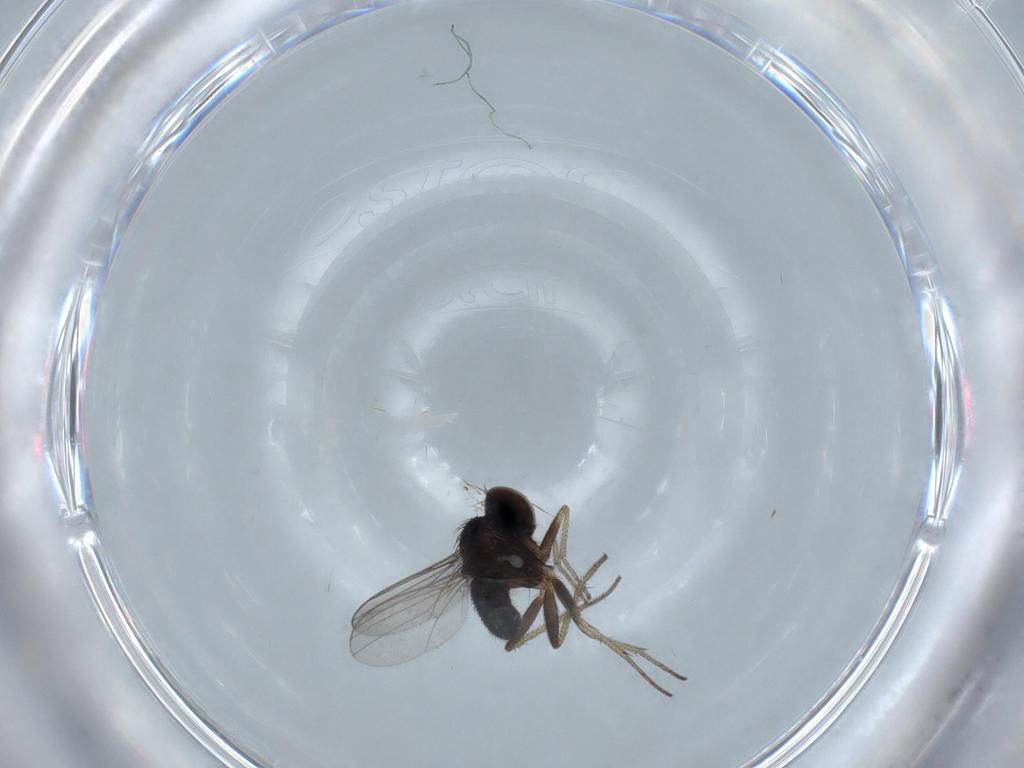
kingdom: Animalia
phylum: Arthropoda
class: Insecta
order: Diptera
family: Dolichopodidae
